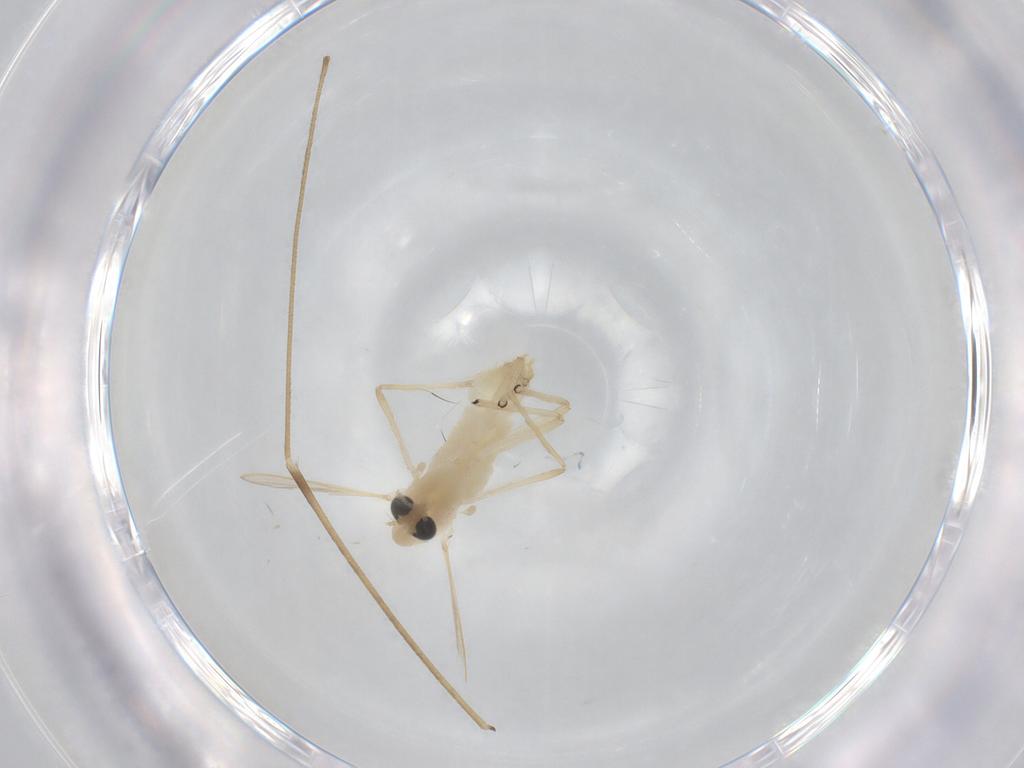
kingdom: Animalia
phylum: Arthropoda
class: Insecta
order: Diptera
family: Chironomidae
